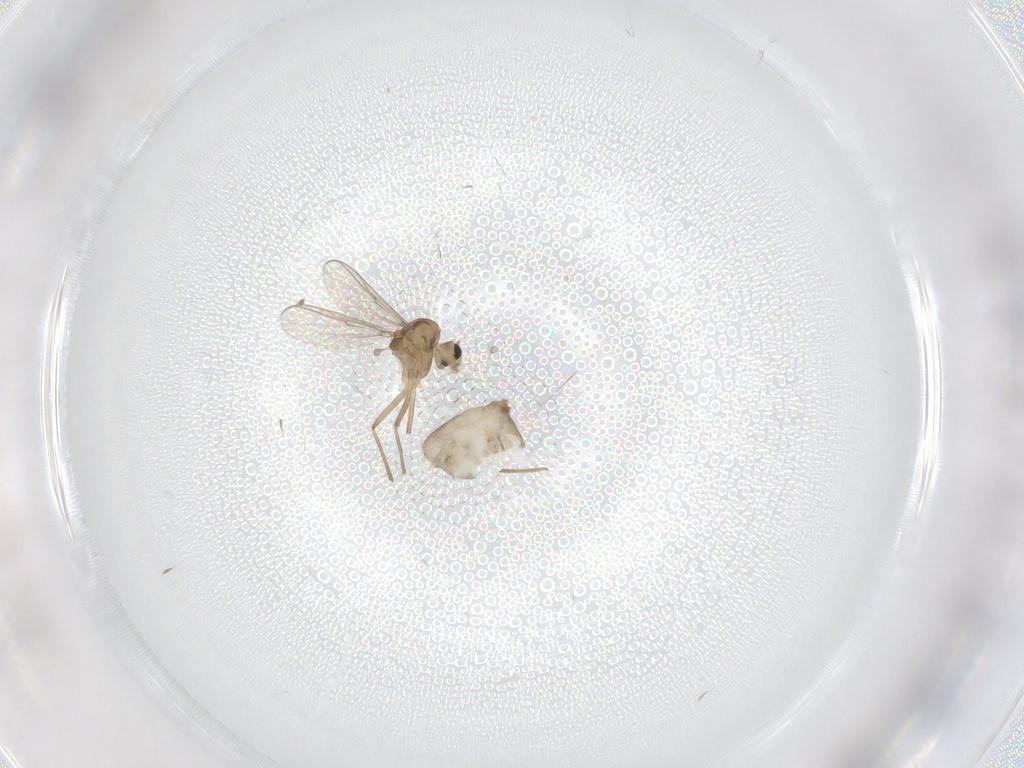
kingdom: Animalia
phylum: Arthropoda
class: Insecta
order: Diptera
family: Chironomidae
